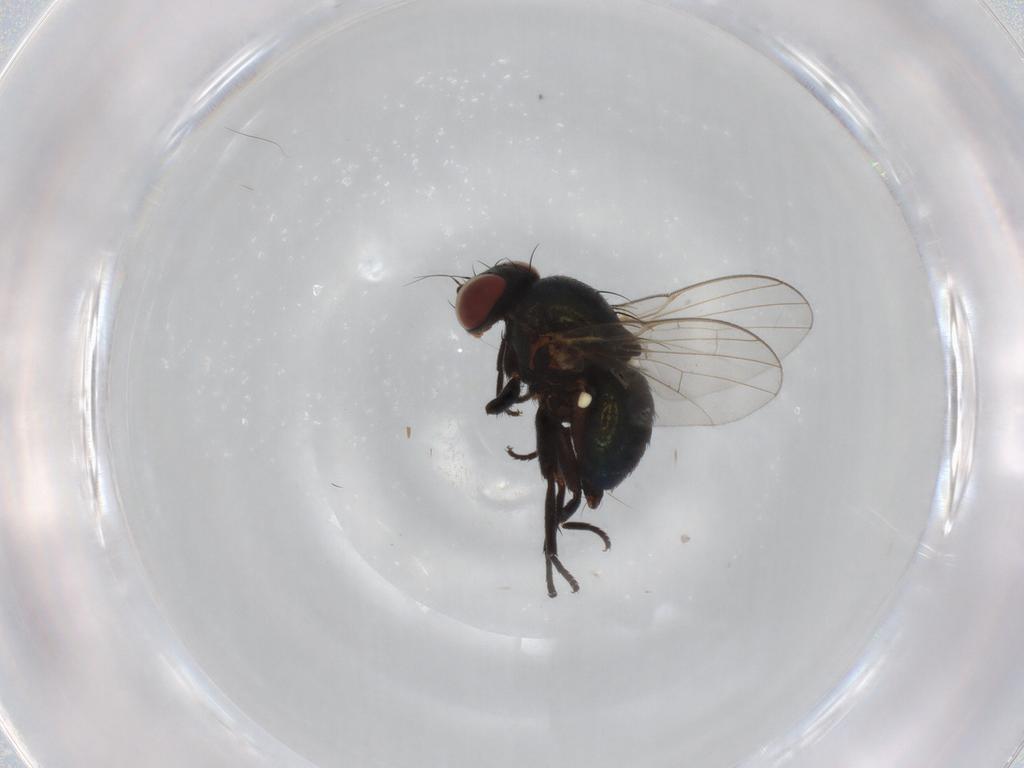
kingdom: Animalia
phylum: Arthropoda
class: Insecta
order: Diptera
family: Agromyzidae
